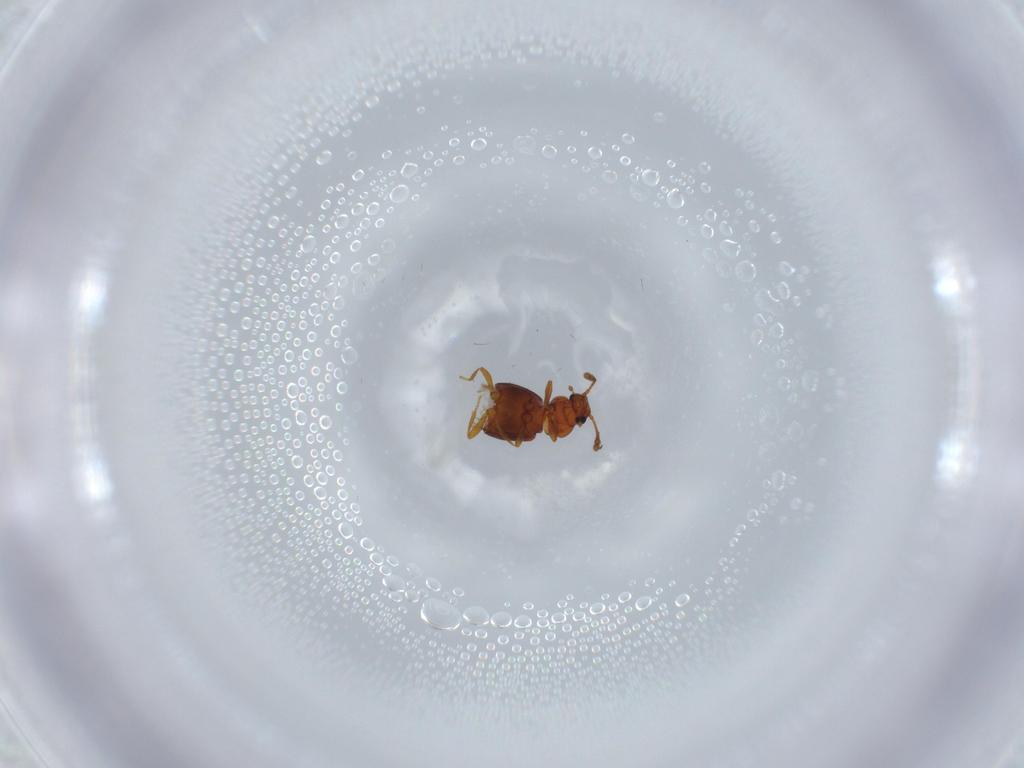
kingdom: Animalia
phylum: Arthropoda
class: Insecta
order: Coleoptera
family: Staphylinidae
